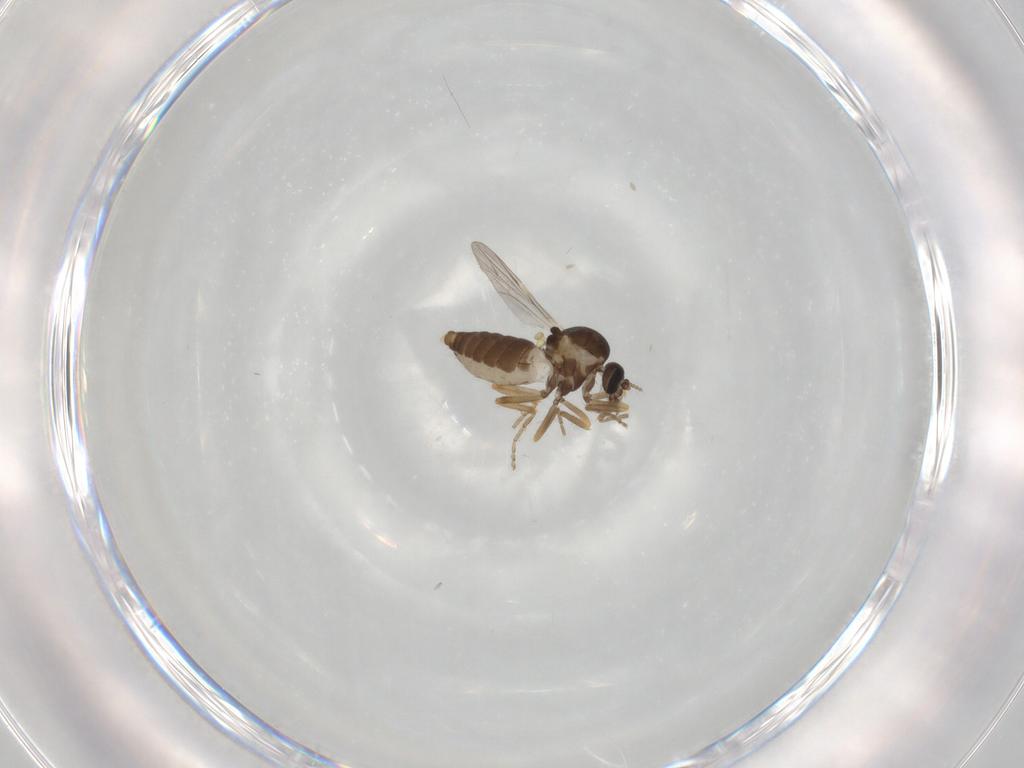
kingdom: Animalia
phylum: Arthropoda
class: Insecta
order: Diptera
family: Ceratopogonidae
